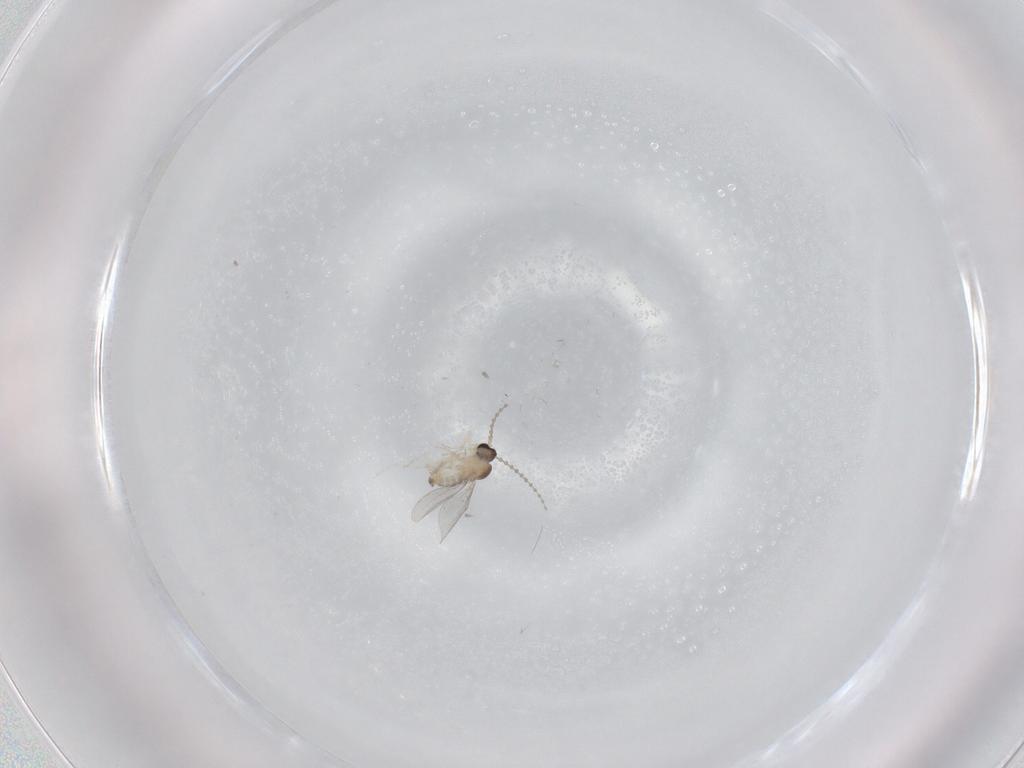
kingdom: Animalia
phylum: Arthropoda
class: Insecta
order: Diptera
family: Cecidomyiidae
